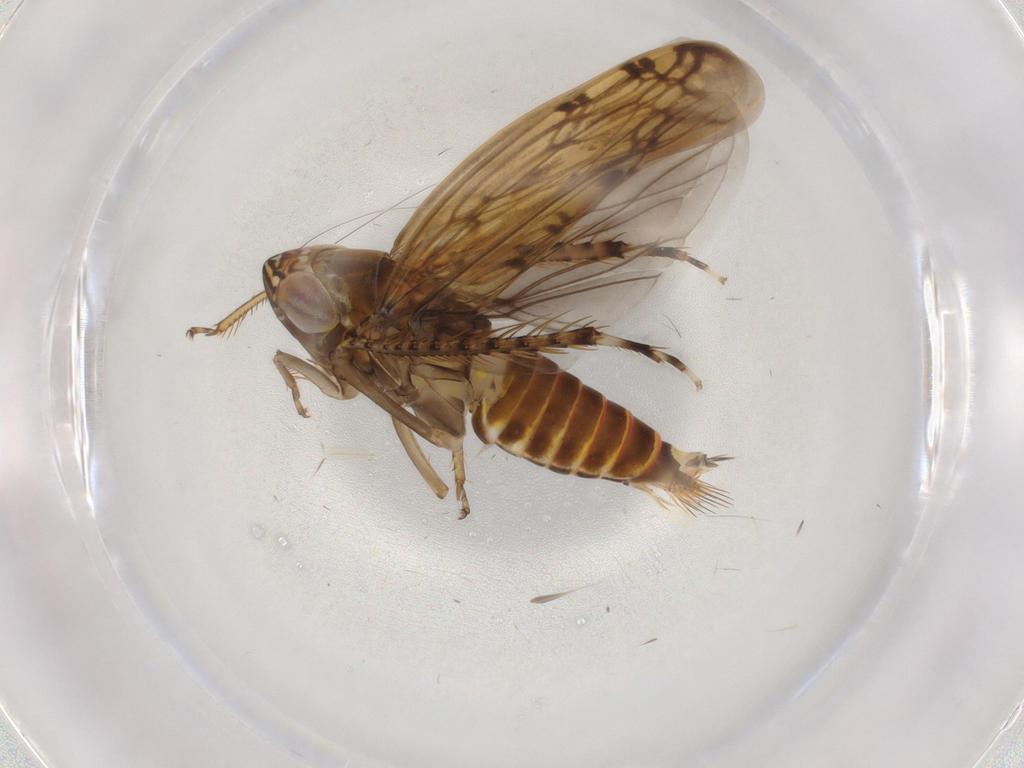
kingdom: Animalia
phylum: Arthropoda
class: Insecta
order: Hemiptera
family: Cicadellidae
